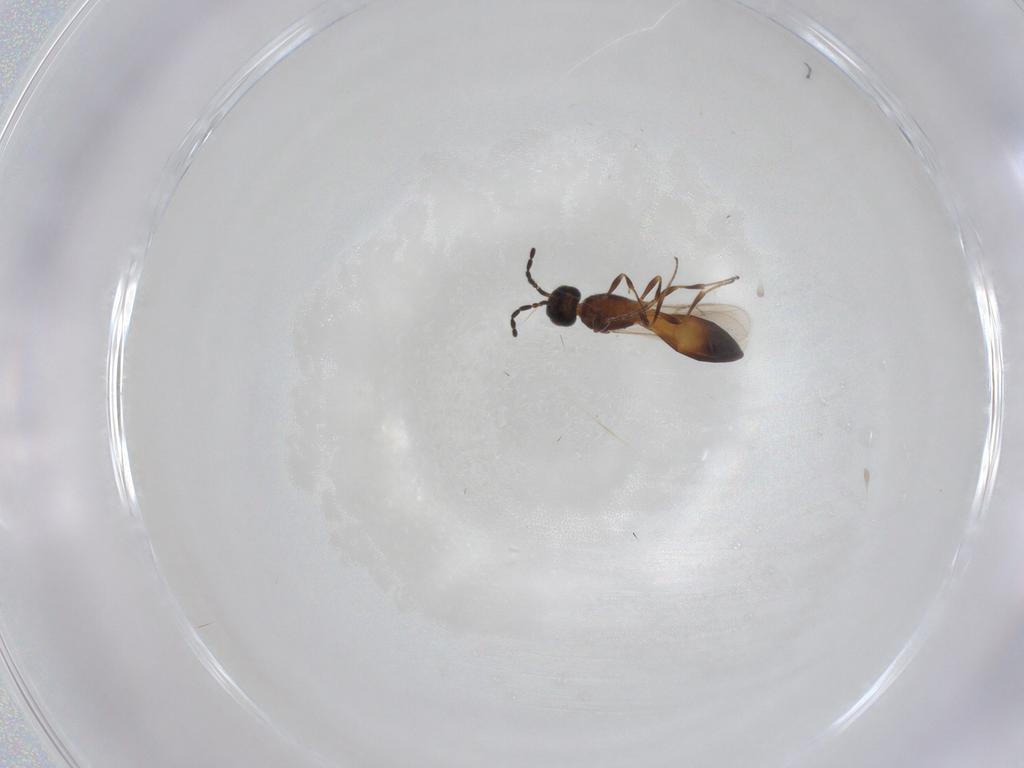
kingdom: Animalia
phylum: Arthropoda
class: Insecta
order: Hymenoptera
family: Scelionidae
